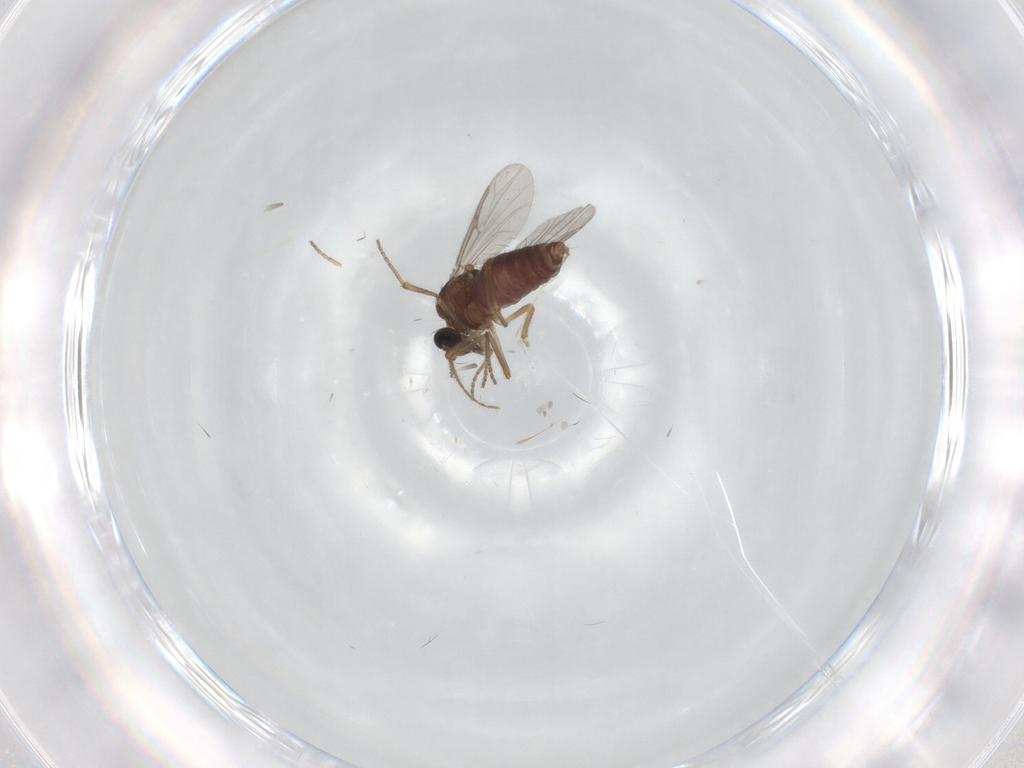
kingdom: Animalia
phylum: Arthropoda
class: Insecta
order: Diptera
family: Ceratopogonidae
